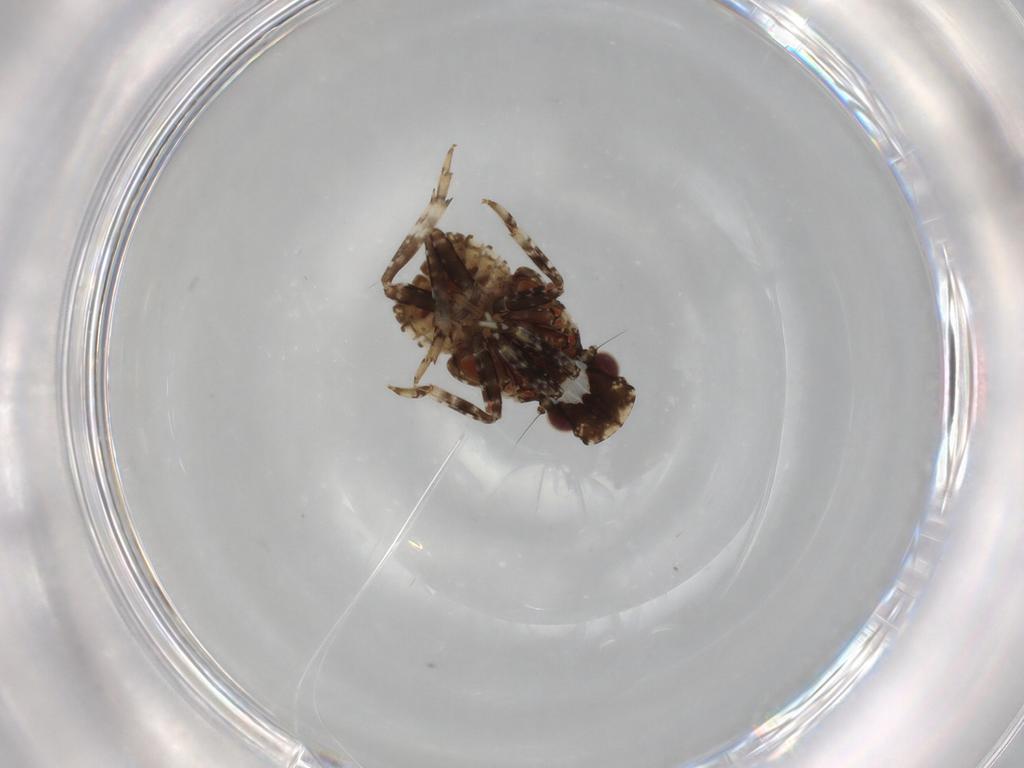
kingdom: Animalia
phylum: Arthropoda
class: Insecta
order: Hemiptera
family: Fulgoridae
